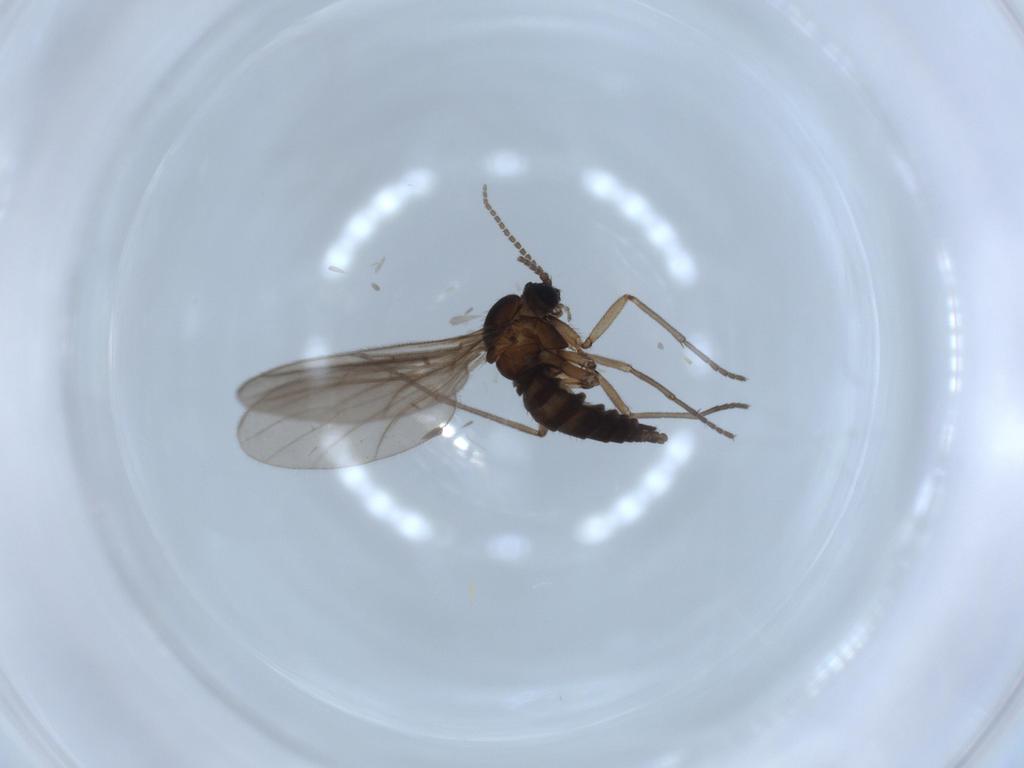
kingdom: Animalia
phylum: Arthropoda
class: Insecta
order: Diptera
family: Sciaridae
